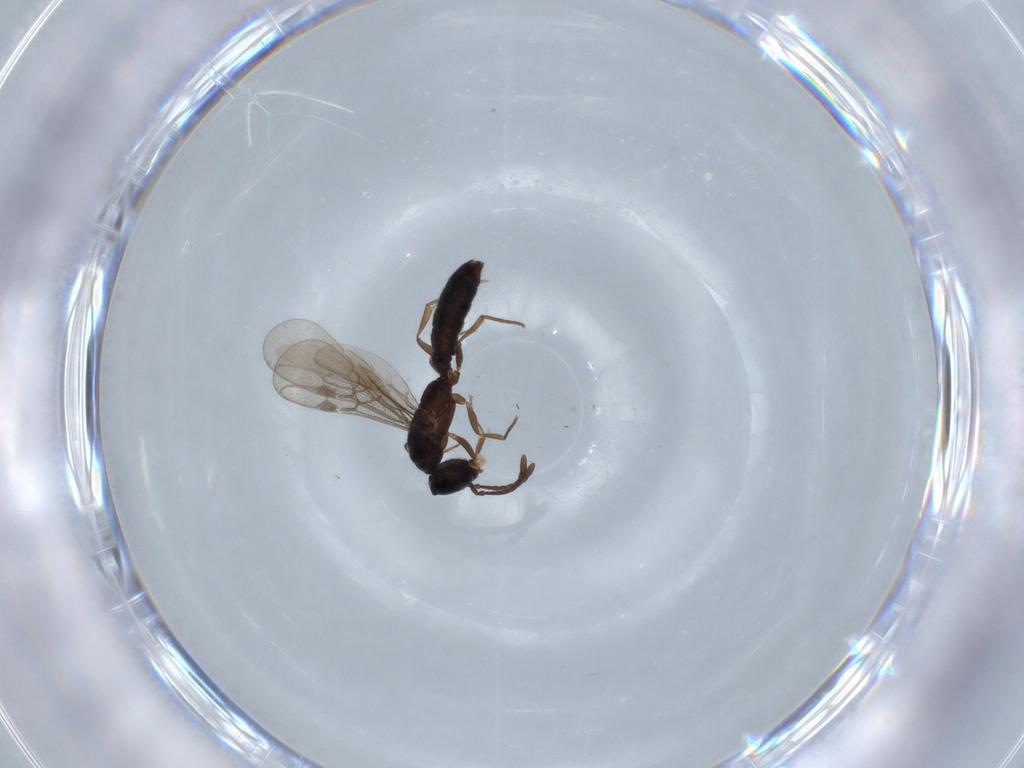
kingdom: Animalia
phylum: Arthropoda
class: Insecta
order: Hymenoptera
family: Formicidae
